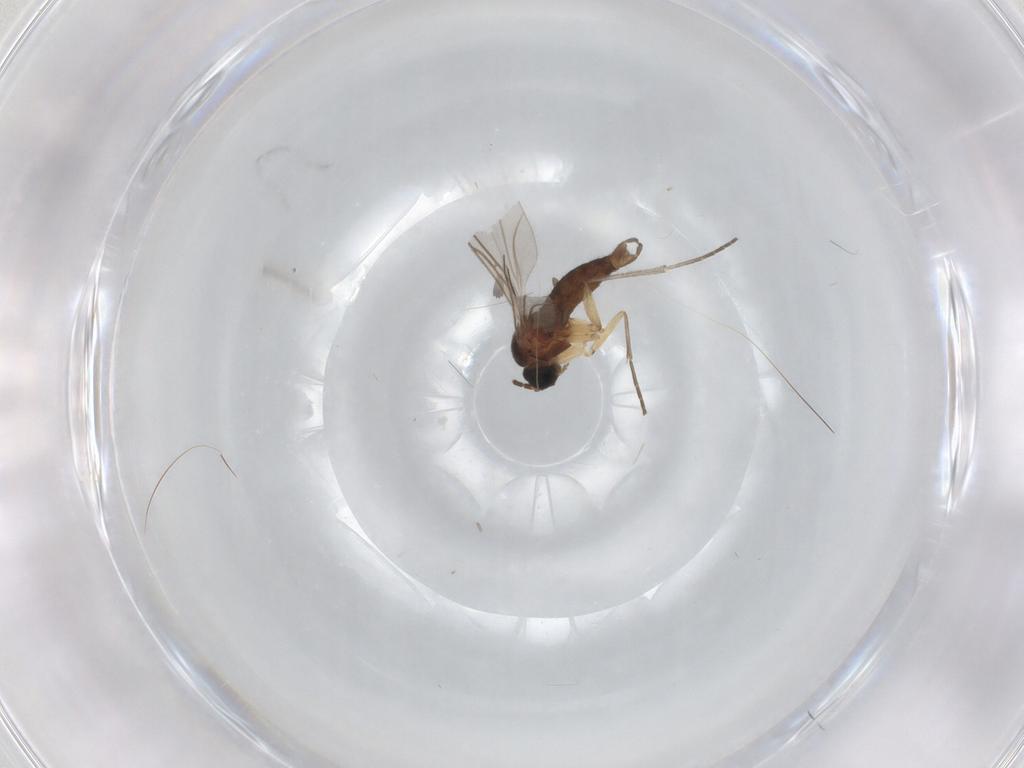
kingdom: Animalia
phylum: Arthropoda
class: Insecta
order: Diptera
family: Sciaridae
